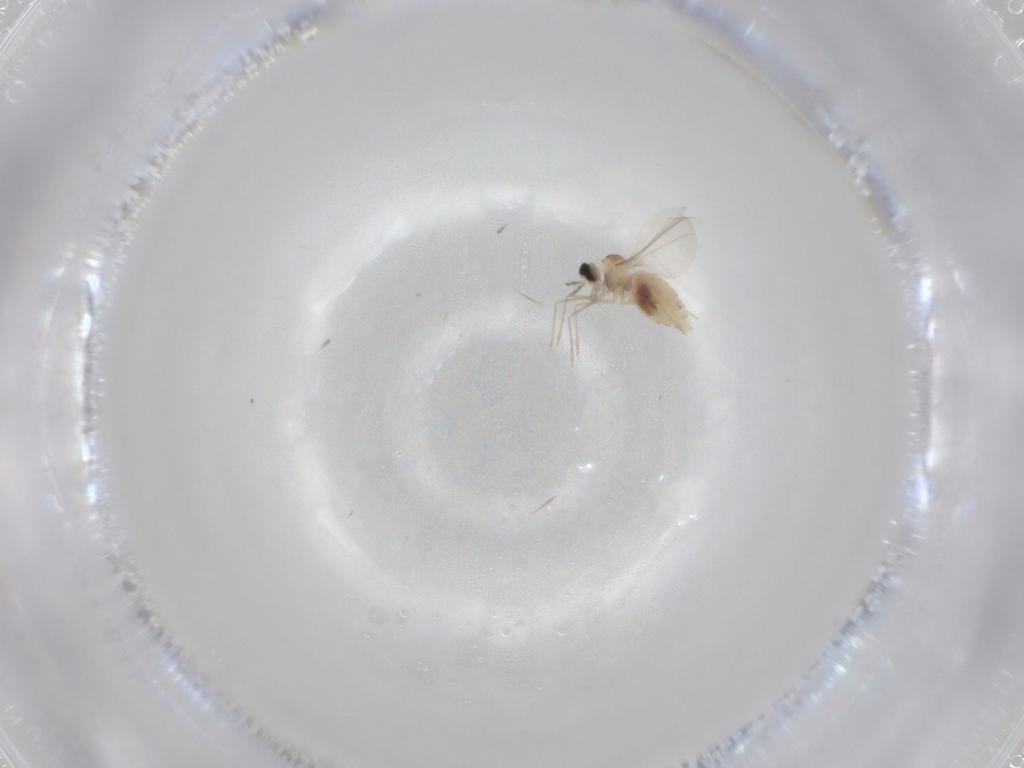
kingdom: Animalia
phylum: Arthropoda
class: Insecta
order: Diptera
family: Cecidomyiidae
